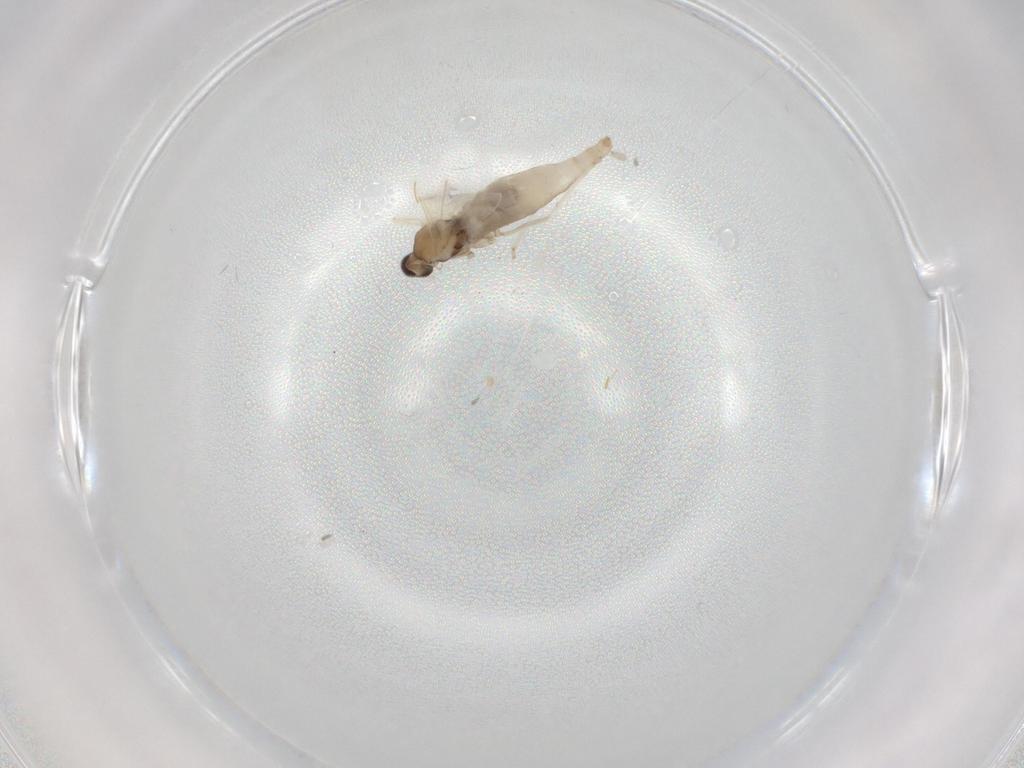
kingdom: Animalia
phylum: Arthropoda
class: Insecta
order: Diptera
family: Cecidomyiidae
